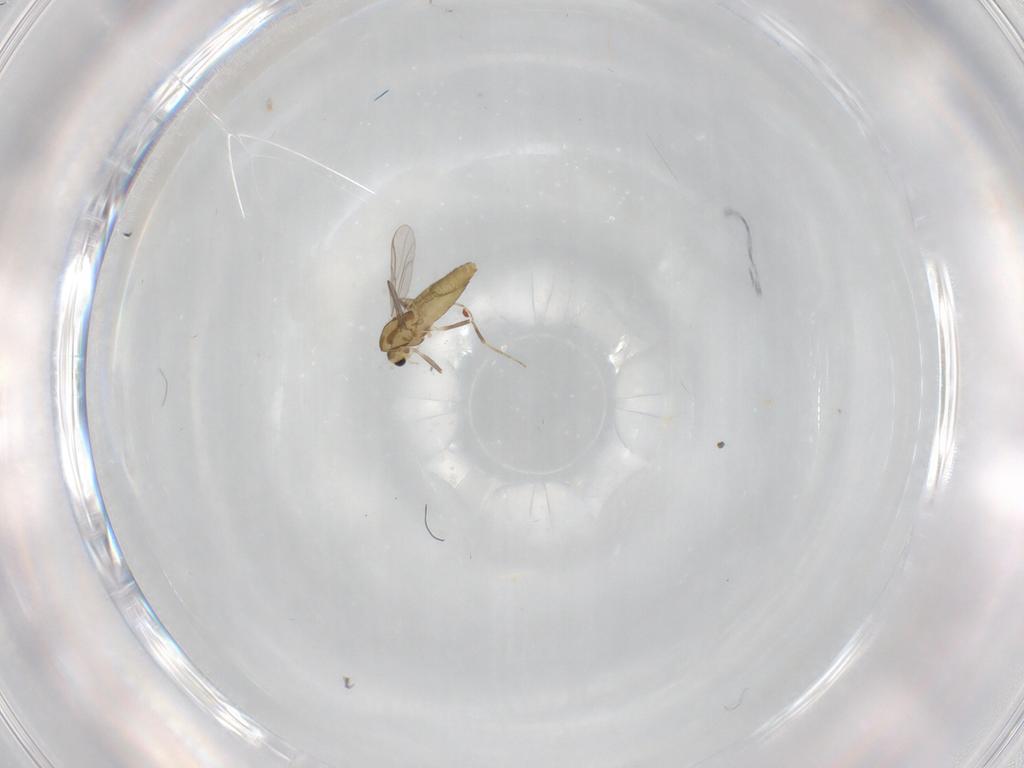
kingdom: Animalia
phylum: Arthropoda
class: Insecta
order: Diptera
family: Chironomidae
